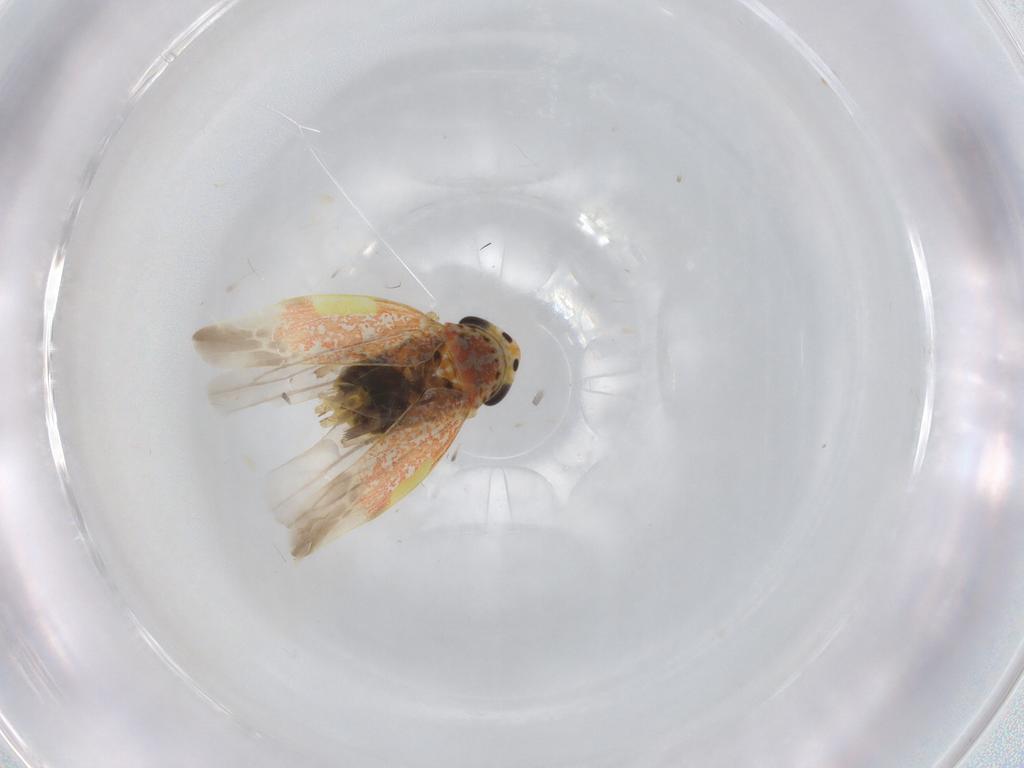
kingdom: Animalia
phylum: Arthropoda
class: Insecta
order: Hemiptera
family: Cicadellidae
